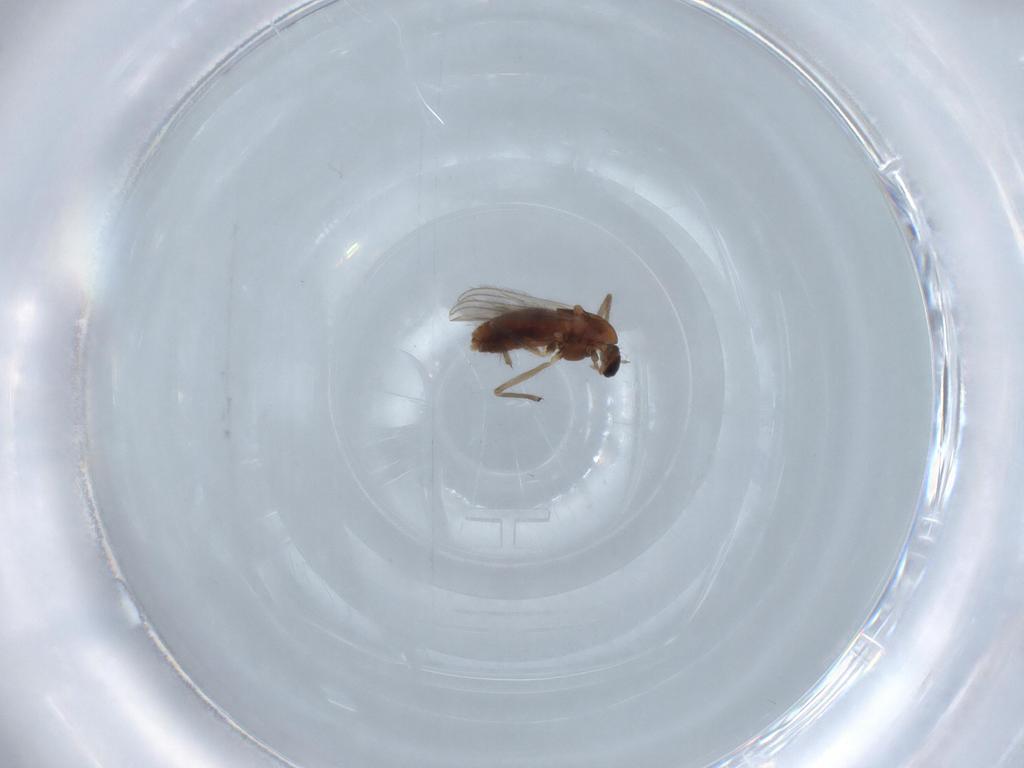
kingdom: Animalia
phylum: Arthropoda
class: Insecta
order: Diptera
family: Chironomidae
